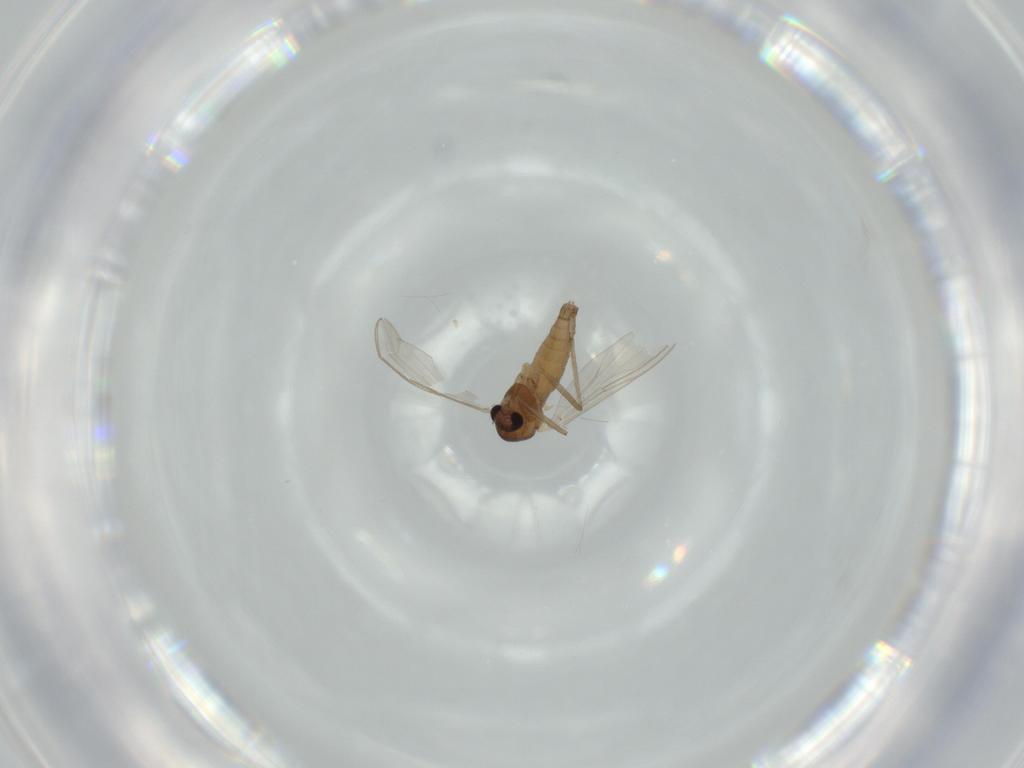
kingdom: Animalia
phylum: Arthropoda
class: Insecta
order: Diptera
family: Chironomidae
